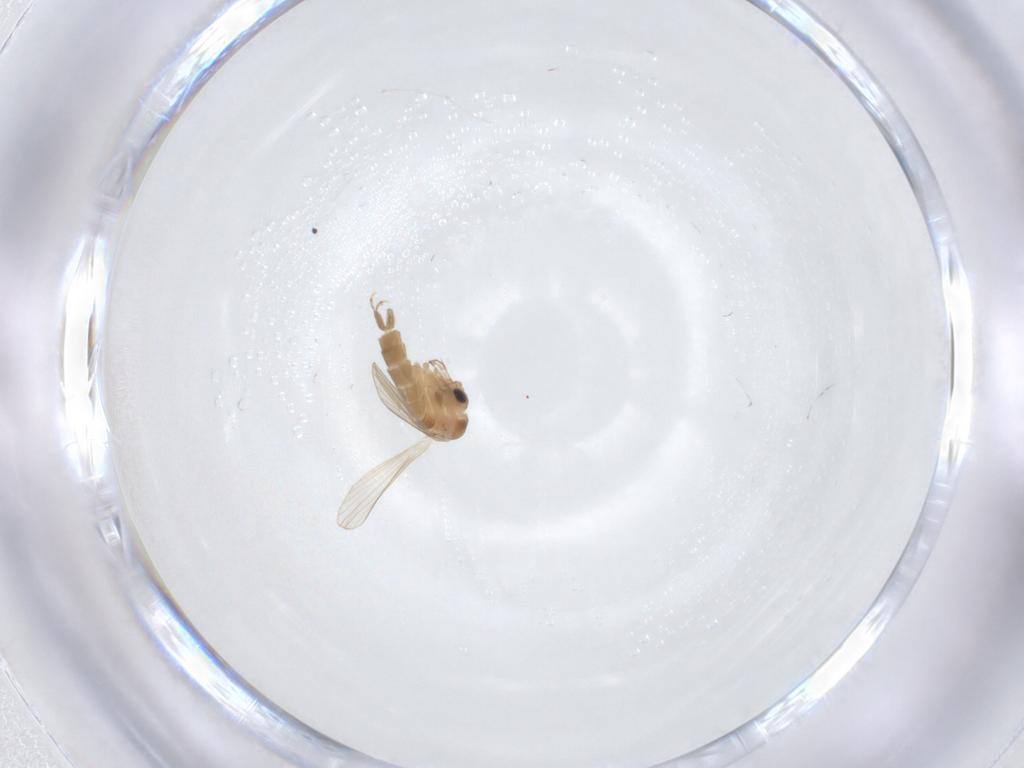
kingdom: Animalia
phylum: Arthropoda
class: Insecta
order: Diptera
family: Psychodidae
